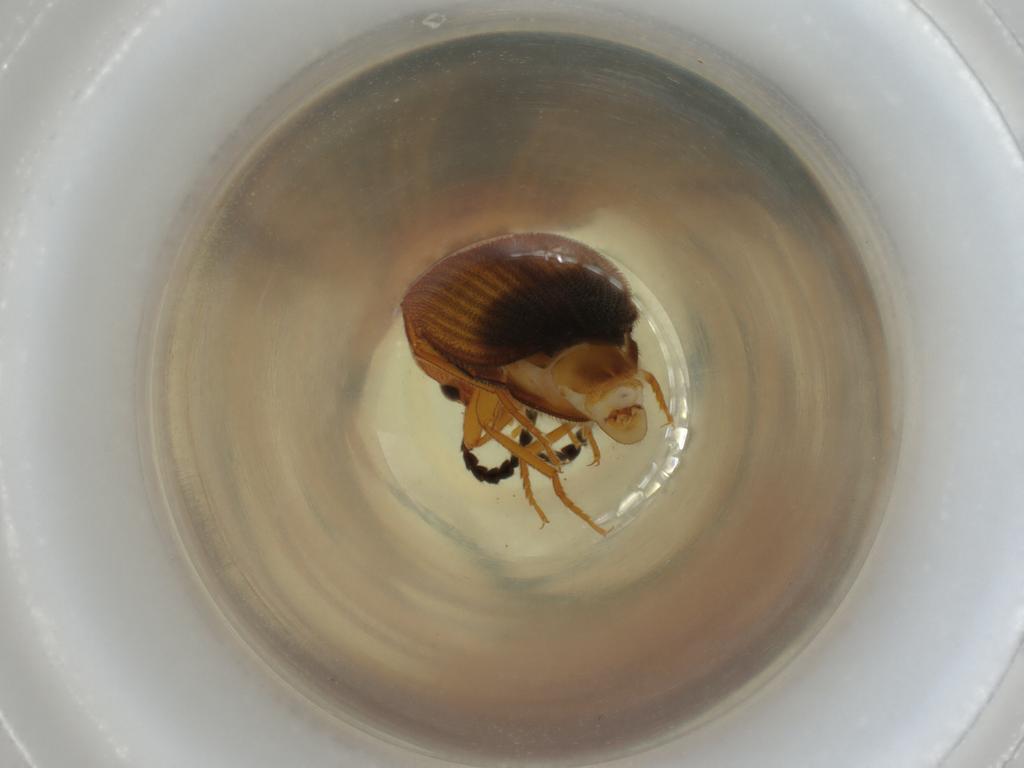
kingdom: Animalia
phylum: Arthropoda
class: Insecta
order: Coleoptera
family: Elateridae
